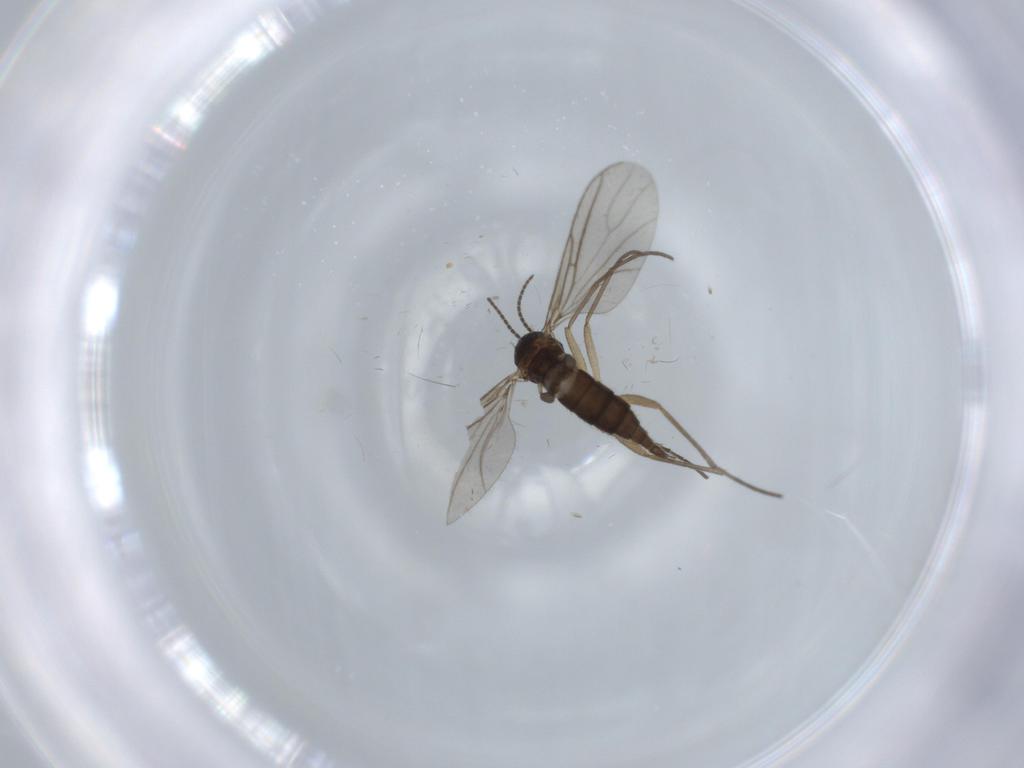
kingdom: Animalia
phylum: Arthropoda
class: Insecta
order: Diptera
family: Sciaridae
